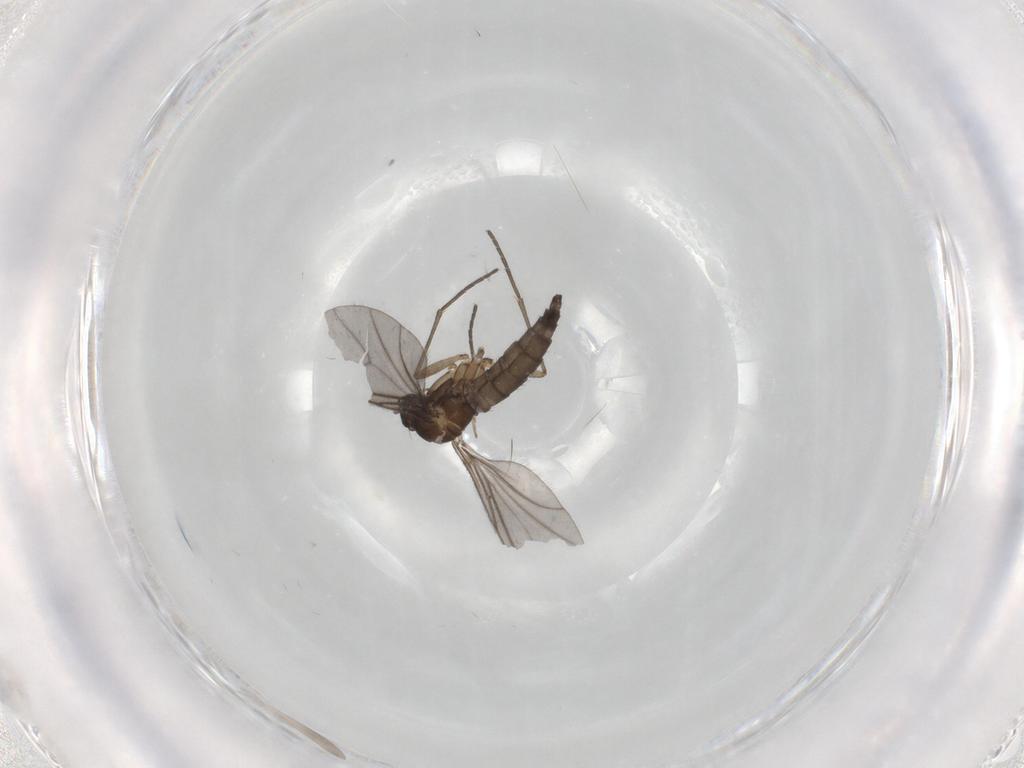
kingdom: Animalia
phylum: Arthropoda
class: Insecta
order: Diptera
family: Sciaridae
